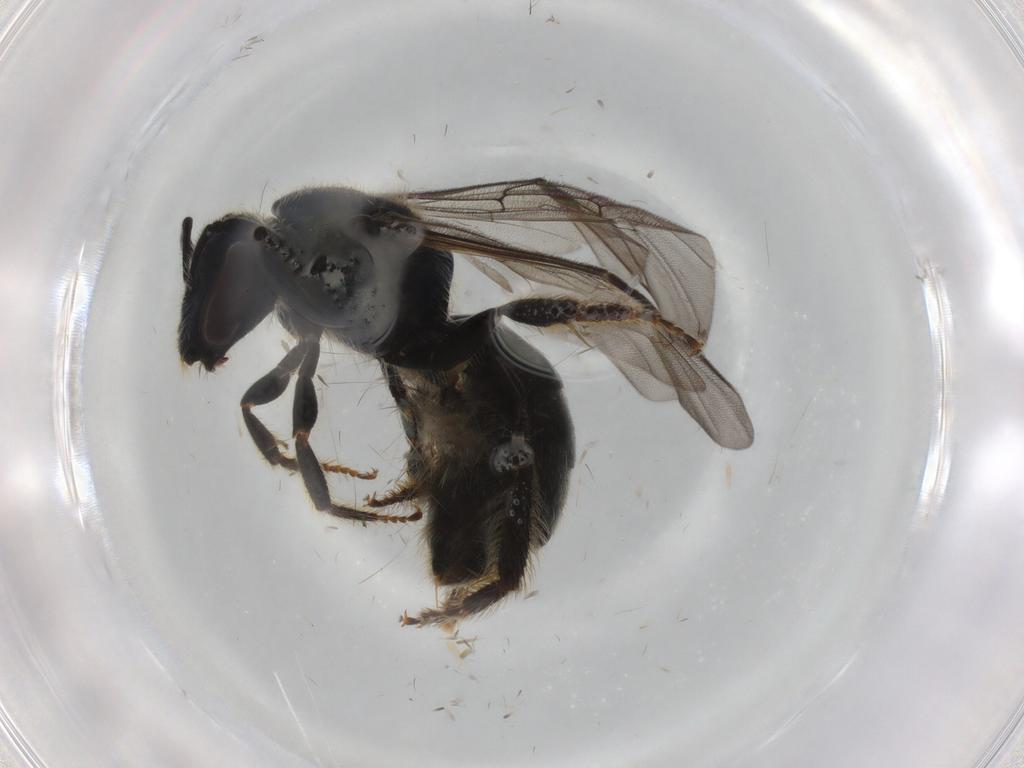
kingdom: Animalia
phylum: Arthropoda
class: Insecta
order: Hymenoptera
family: Halictidae
